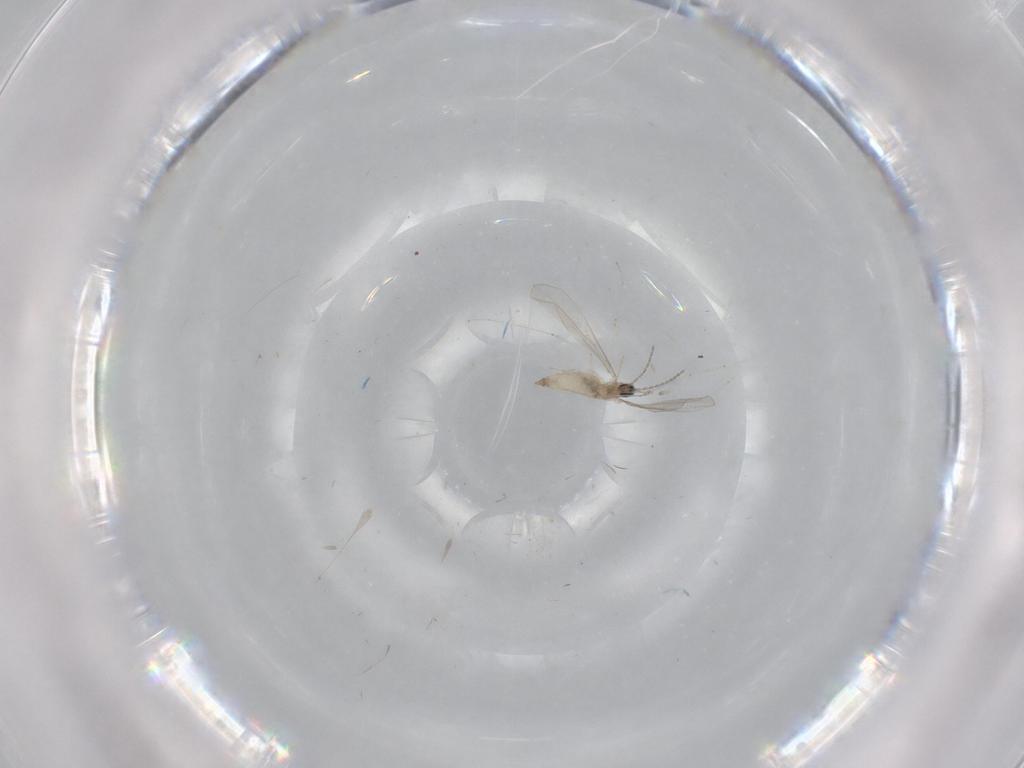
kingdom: Animalia
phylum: Arthropoda
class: Insecta
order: Diptera
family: Cecidomyiidae
